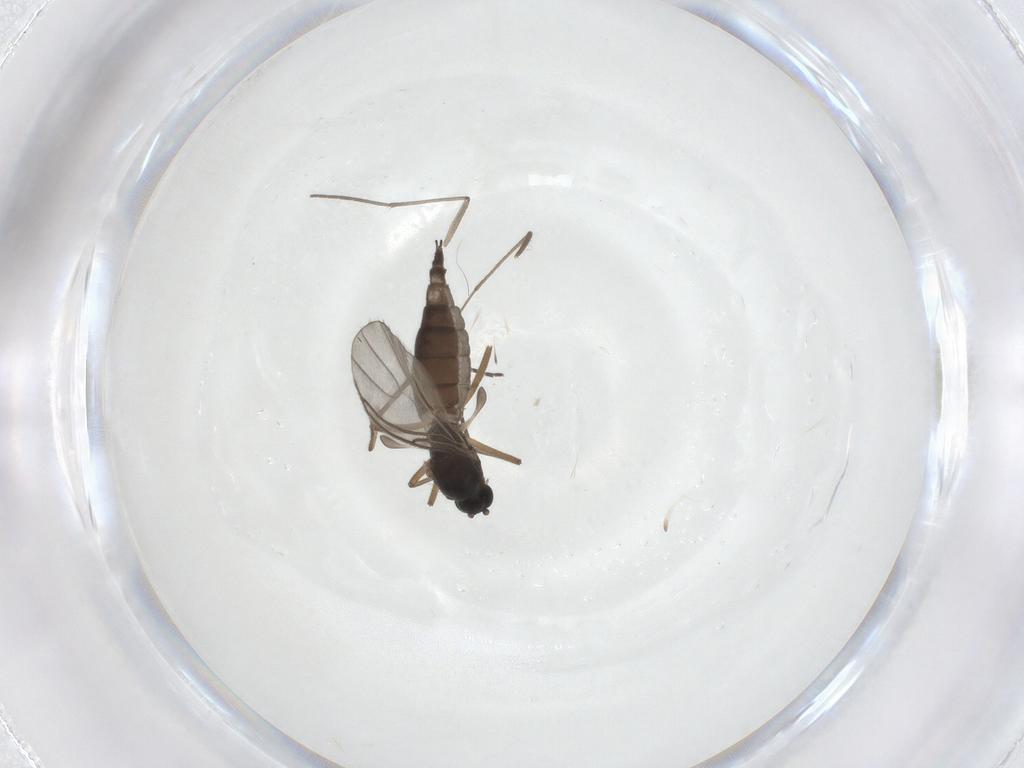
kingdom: Animalia
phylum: Arthropoda
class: Insecta
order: Diptera
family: Sciaridae
